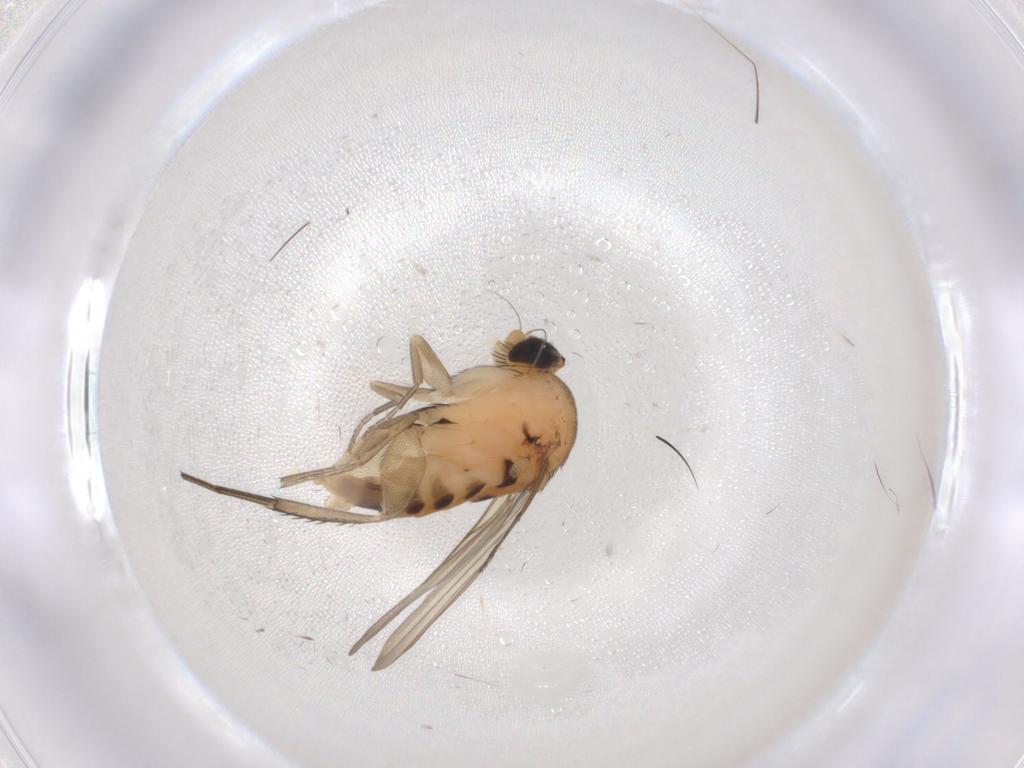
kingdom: Animalia
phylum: Arthropoda
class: Insecta
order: Diptera
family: Phoridae
